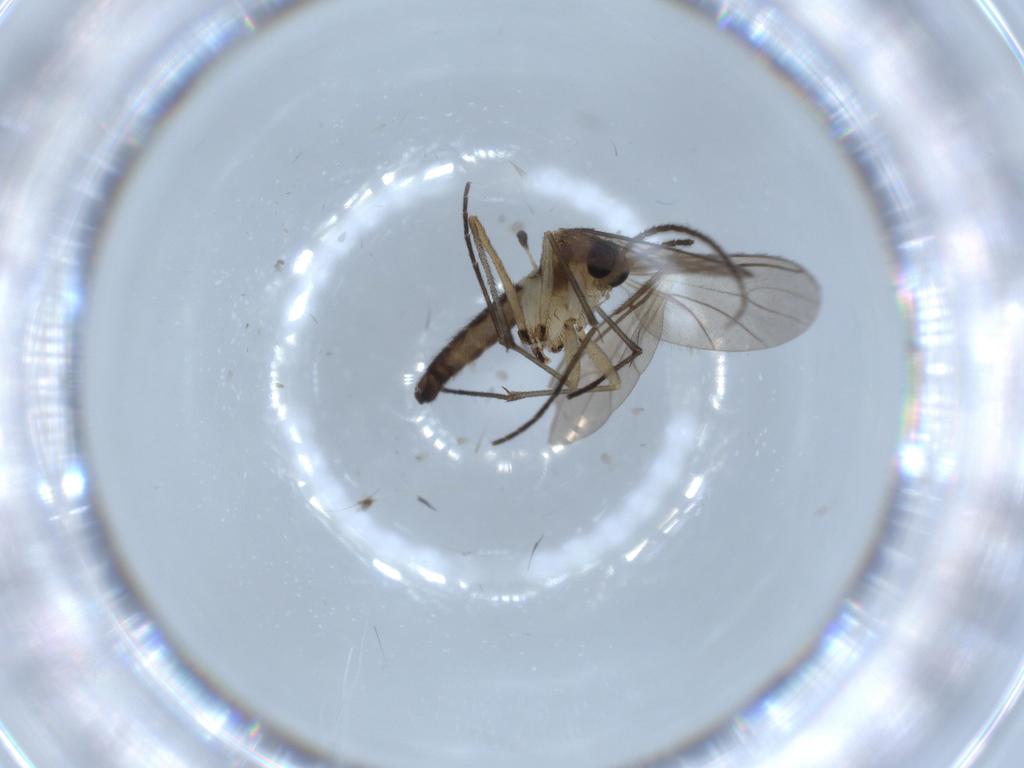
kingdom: Animalia
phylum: Arthropoda
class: Insecta
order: Diptera
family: Sciaridae
